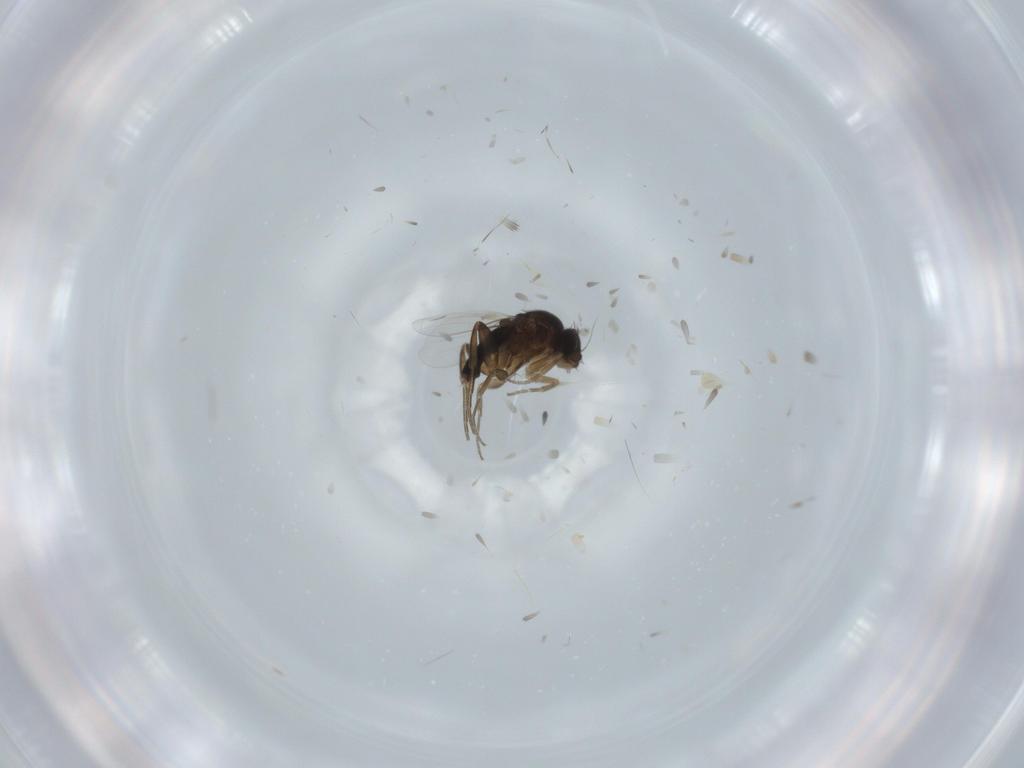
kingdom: Animalia
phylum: Arthropoda
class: Insecta
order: Diptera
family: Phoridae
